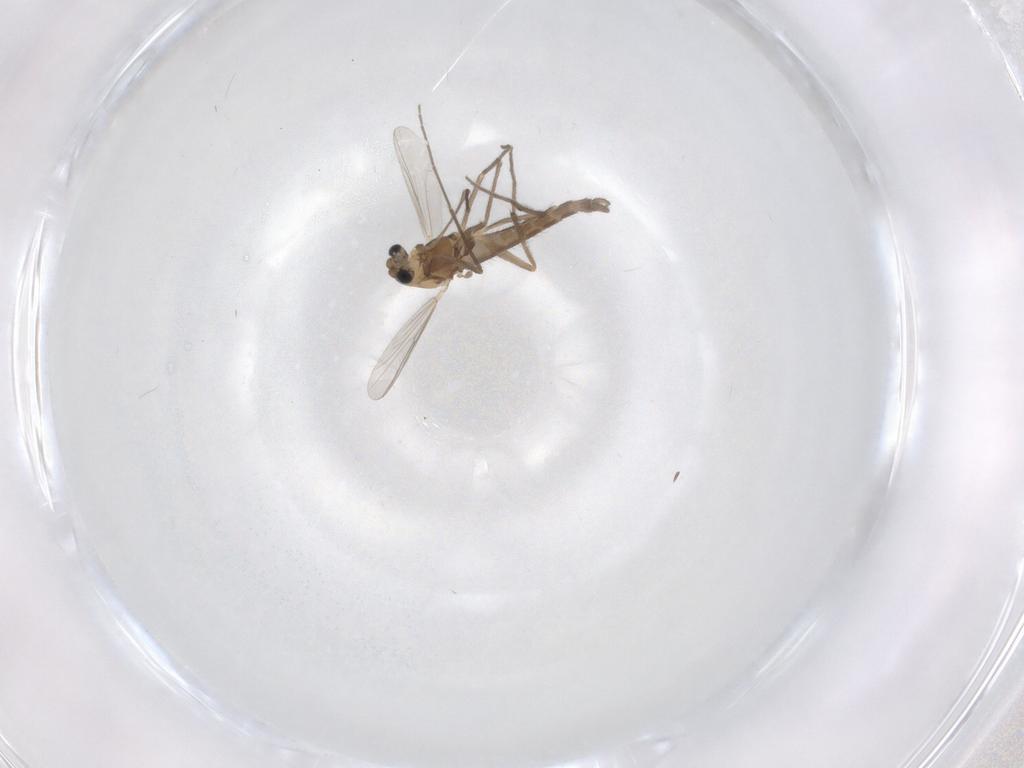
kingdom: Animalia
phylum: Arthropoda
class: Insecta
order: Diptera
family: Chironomidae
